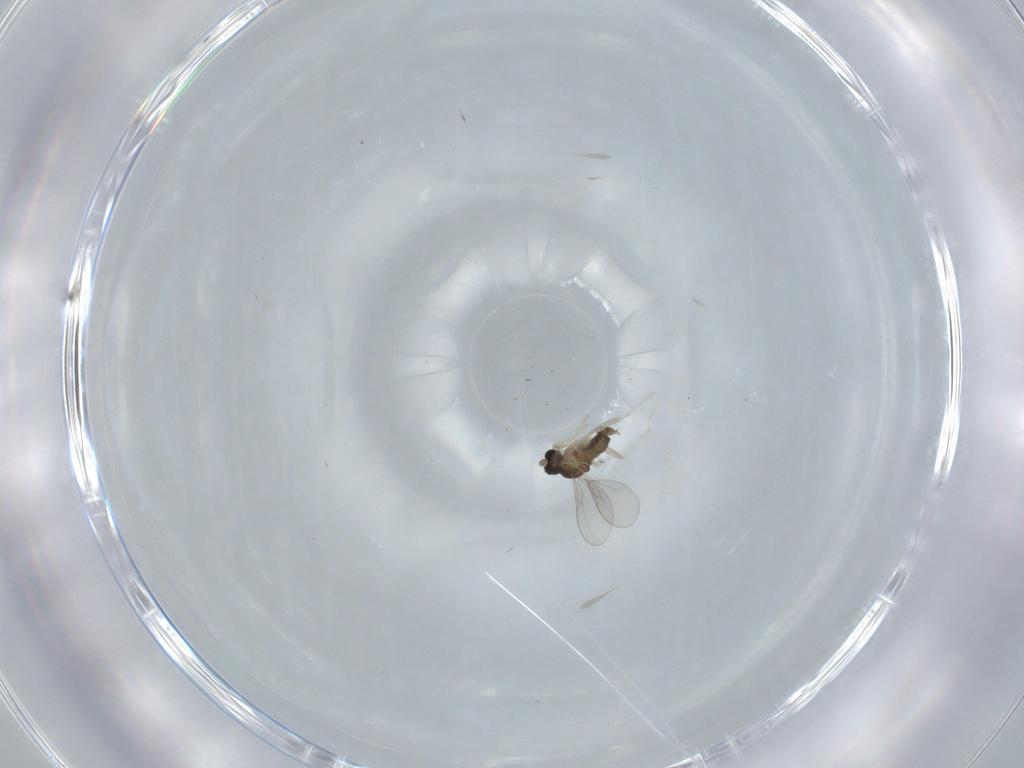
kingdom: Animalia
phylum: Arthropoda
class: Insecta
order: Diptera
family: Cecidomyiidae
